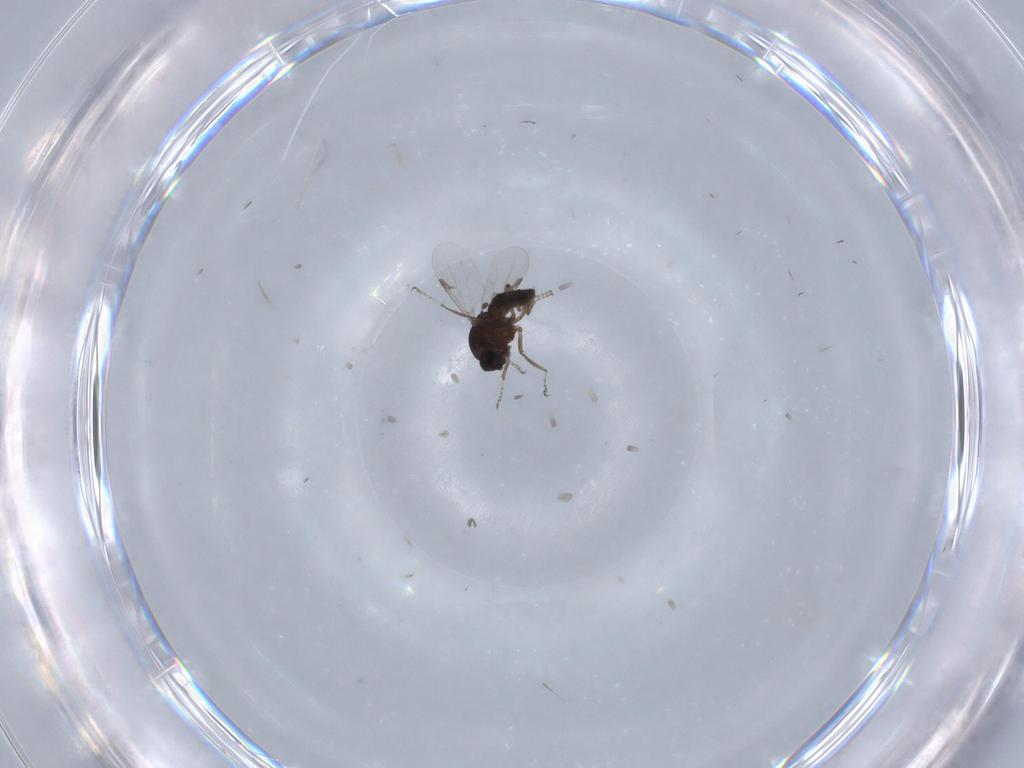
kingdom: Animalia
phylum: Arthropoda
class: Insecta
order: Diptera
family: Ceratopogonidae
